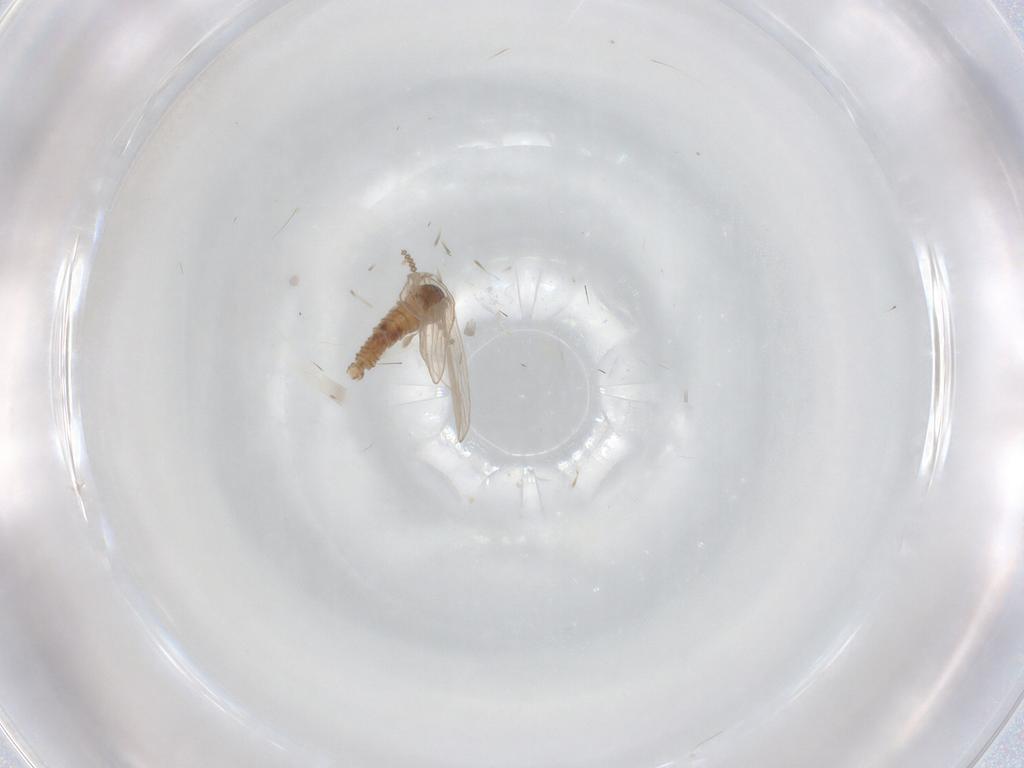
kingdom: Animalia
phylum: Arthropoda
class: Insecta
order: Diptera
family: Psychodidae
